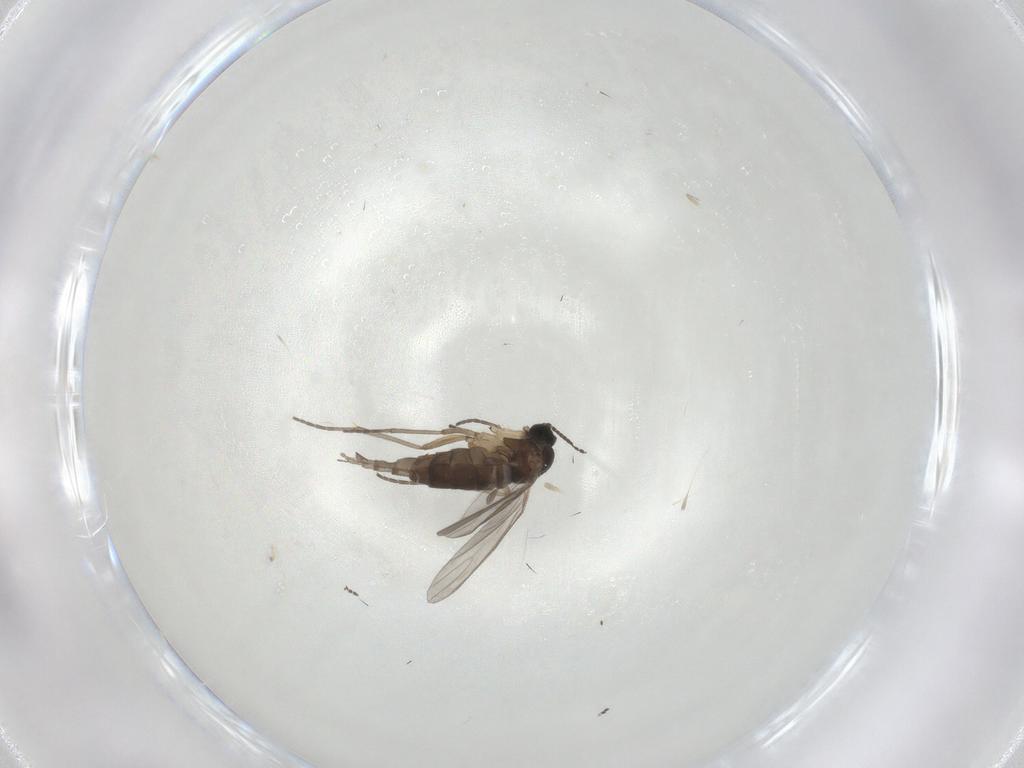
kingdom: Animalia
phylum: Arthropoda
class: Insecta
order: Diptera
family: Sciaridae
